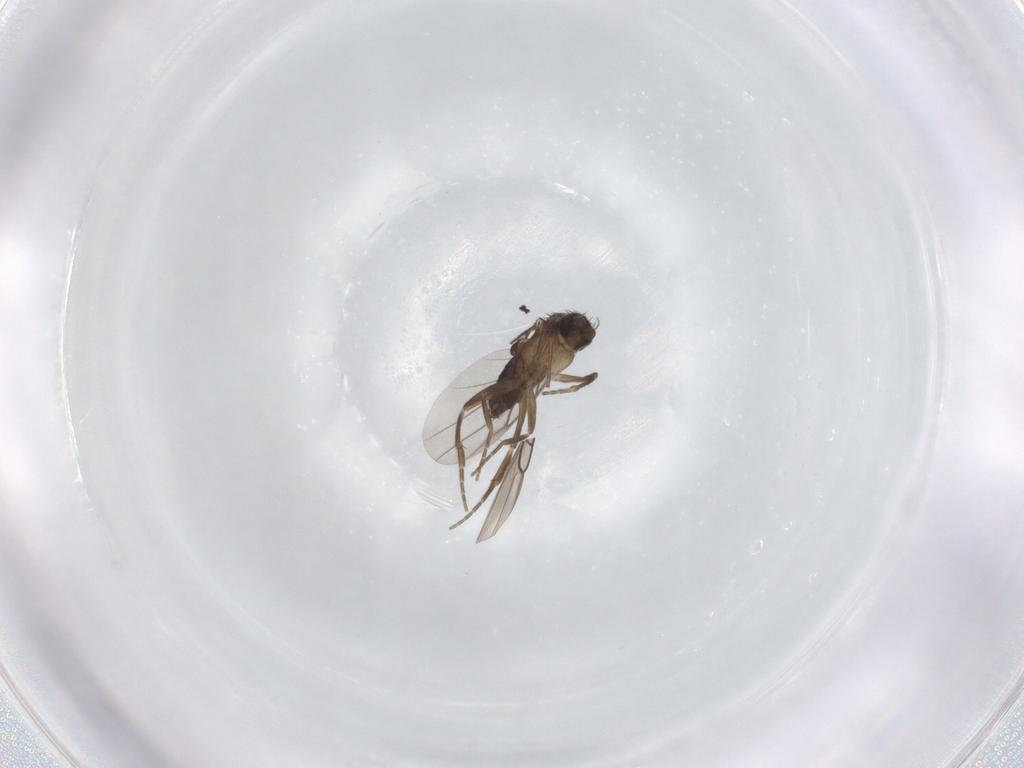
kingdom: Animalia
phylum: Arthropoda
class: Insecta
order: Diptera
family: Phoridae
